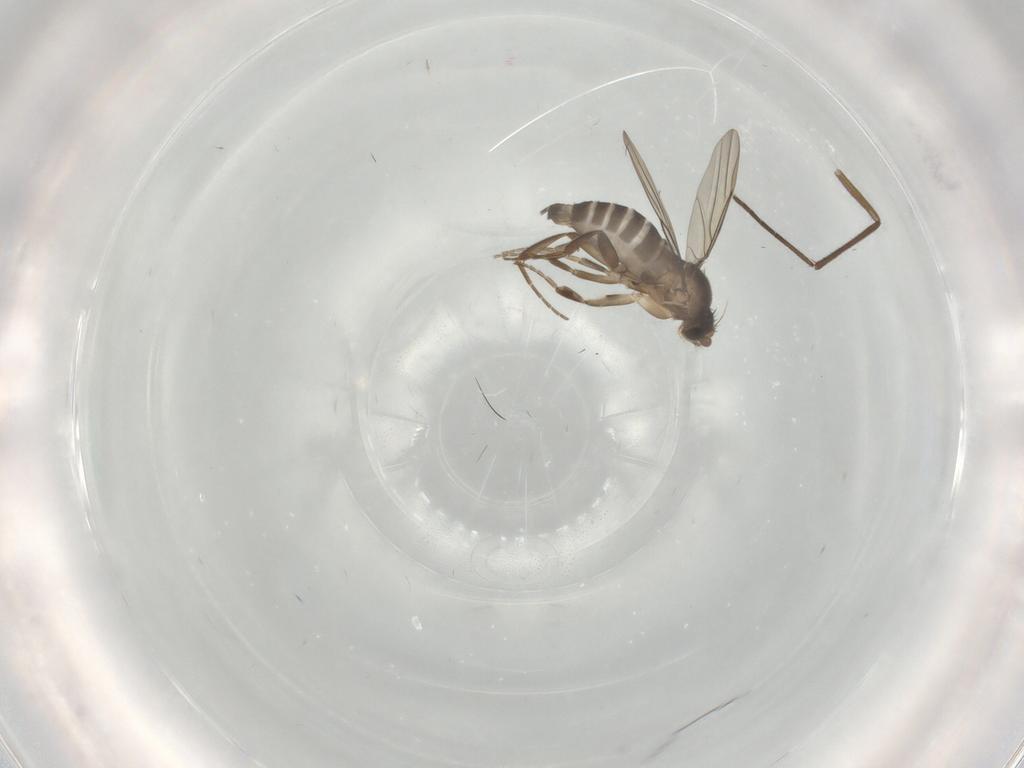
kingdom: Animalia
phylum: Arthropoda
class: Insecta
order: Diptera
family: Phoridae
